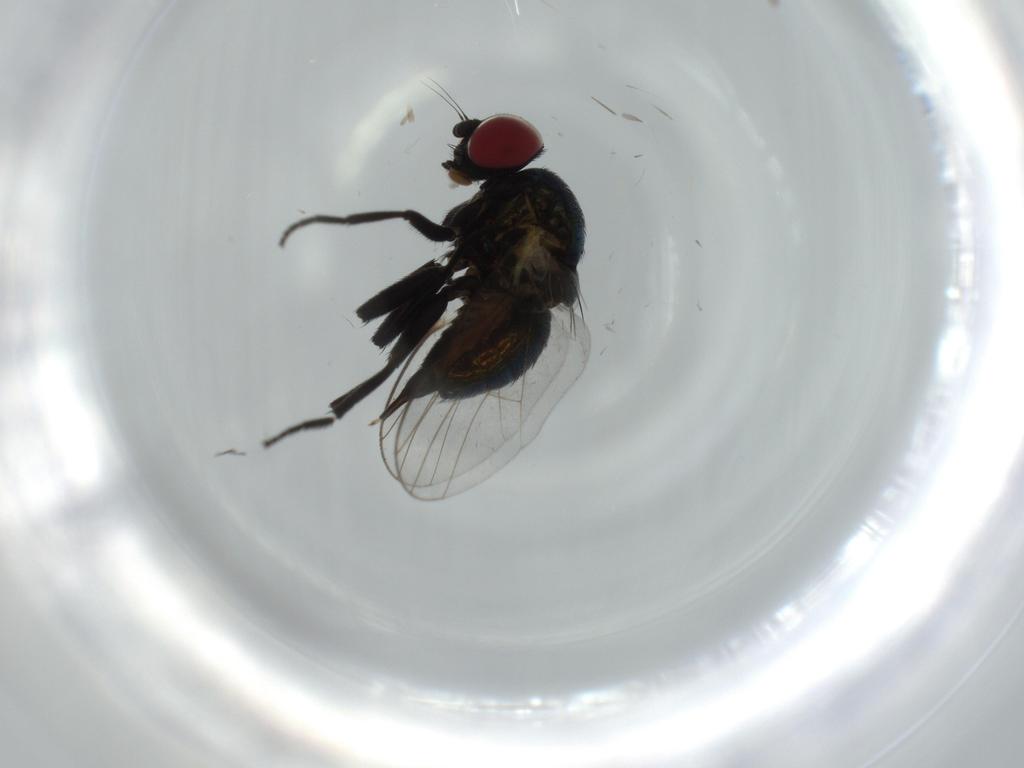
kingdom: Animalia
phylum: Arthropoda
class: Insecta
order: Diptera
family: Agromyzidae
